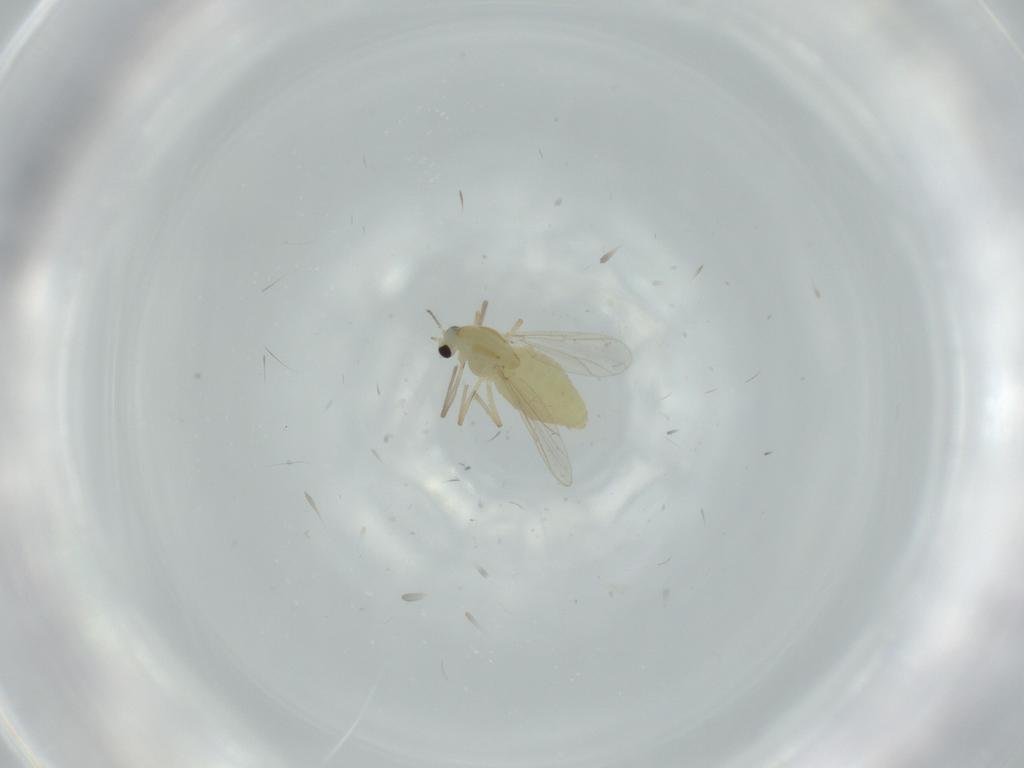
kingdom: Animalia
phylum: Arthropoda
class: Insecta
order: Diptera
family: Chironomidae
